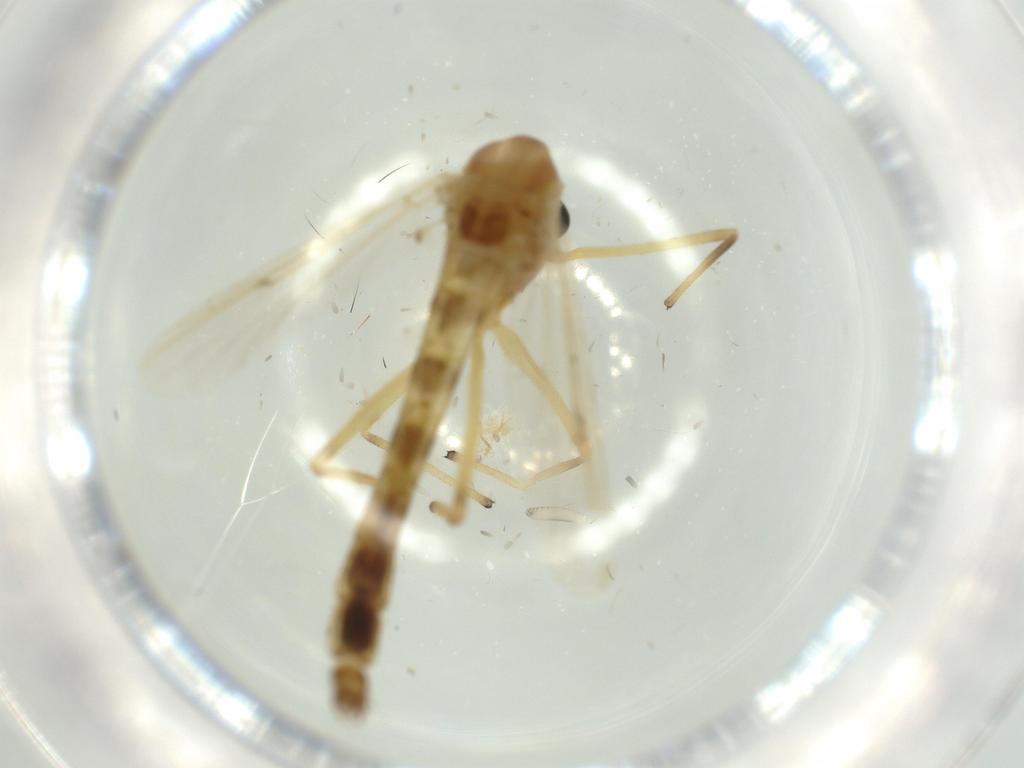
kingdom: Animalia
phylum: Arthropoda
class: Insecta
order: Diptera
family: Chironomidae
